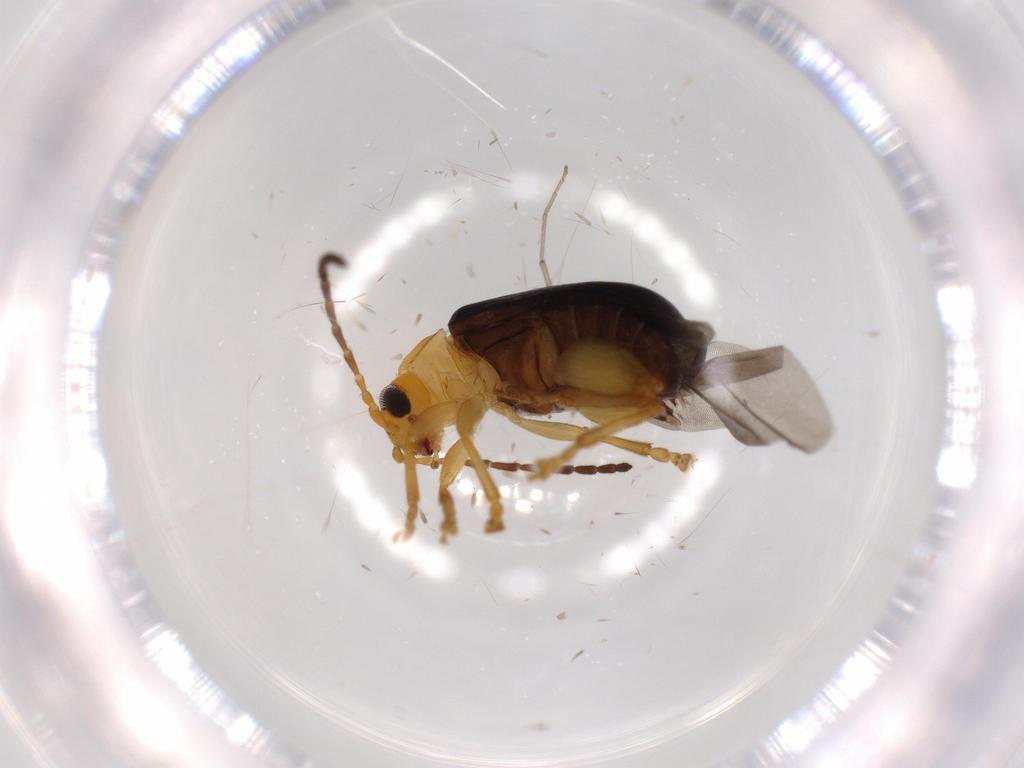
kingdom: Animalia
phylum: Arthropoda
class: Insecta
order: Coleoptera
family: Chrysomelidae
